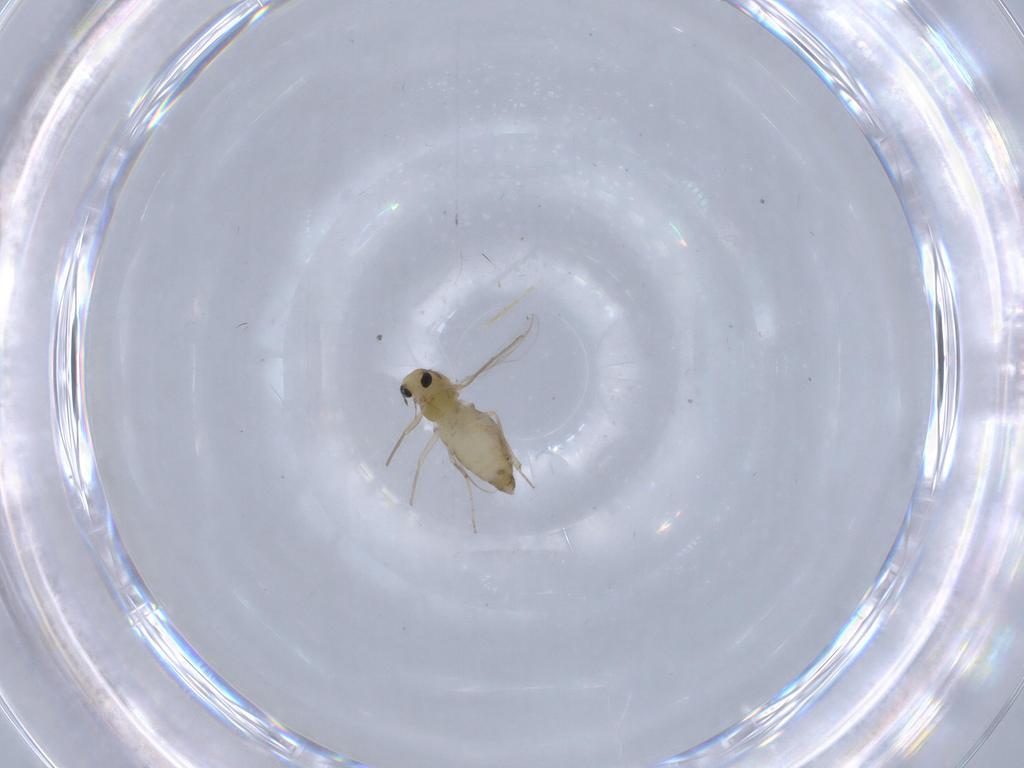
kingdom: Animalia
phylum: Arthropoda
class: Insecta
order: Diptera
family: Chironomidae
